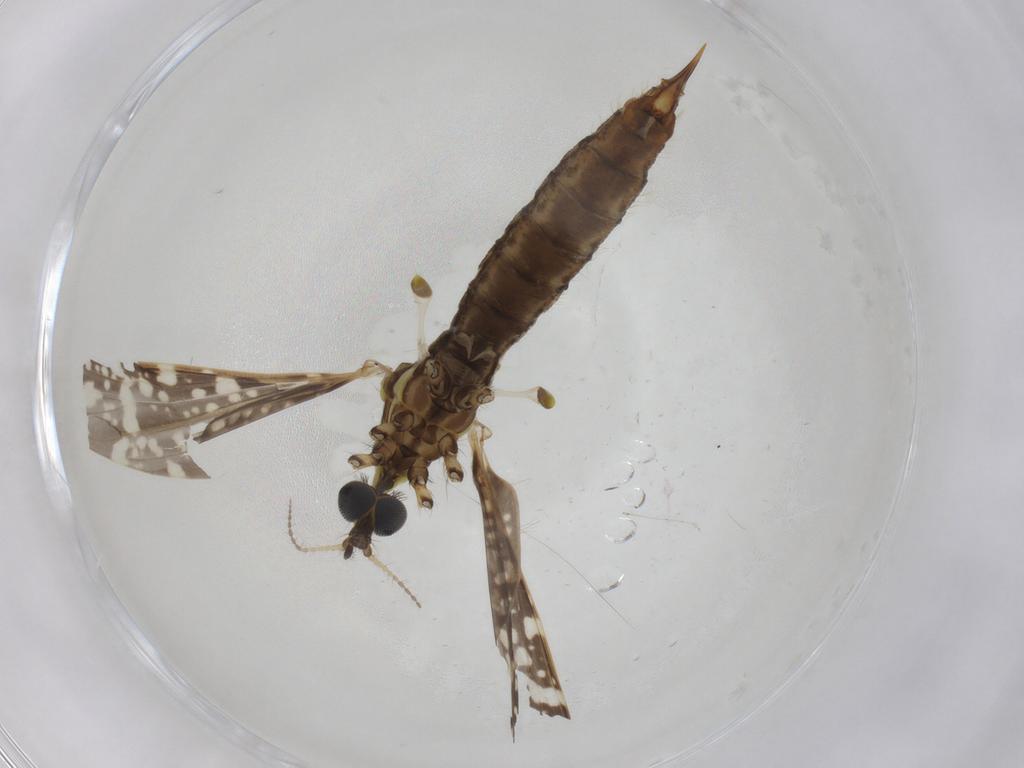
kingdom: Animalia
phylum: Arthropoda
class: Insecta
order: Diptera
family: Limoniidae
